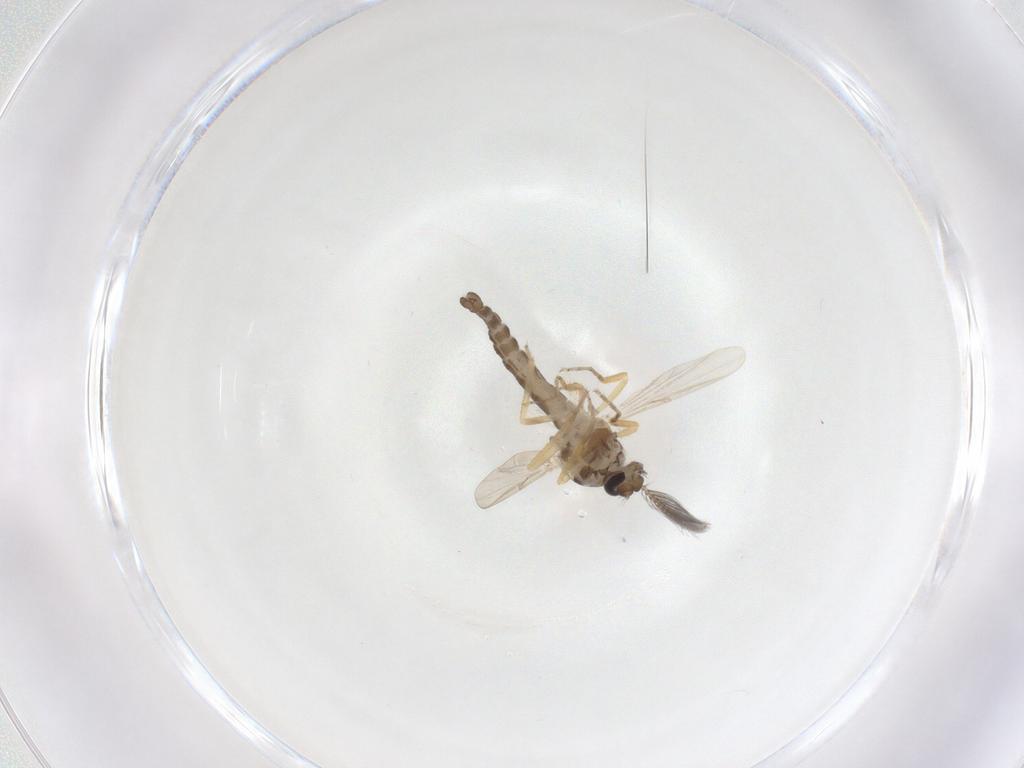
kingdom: Animalia
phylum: Arthropoda
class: Insecta
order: Diptera
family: Ceratopogonidae
